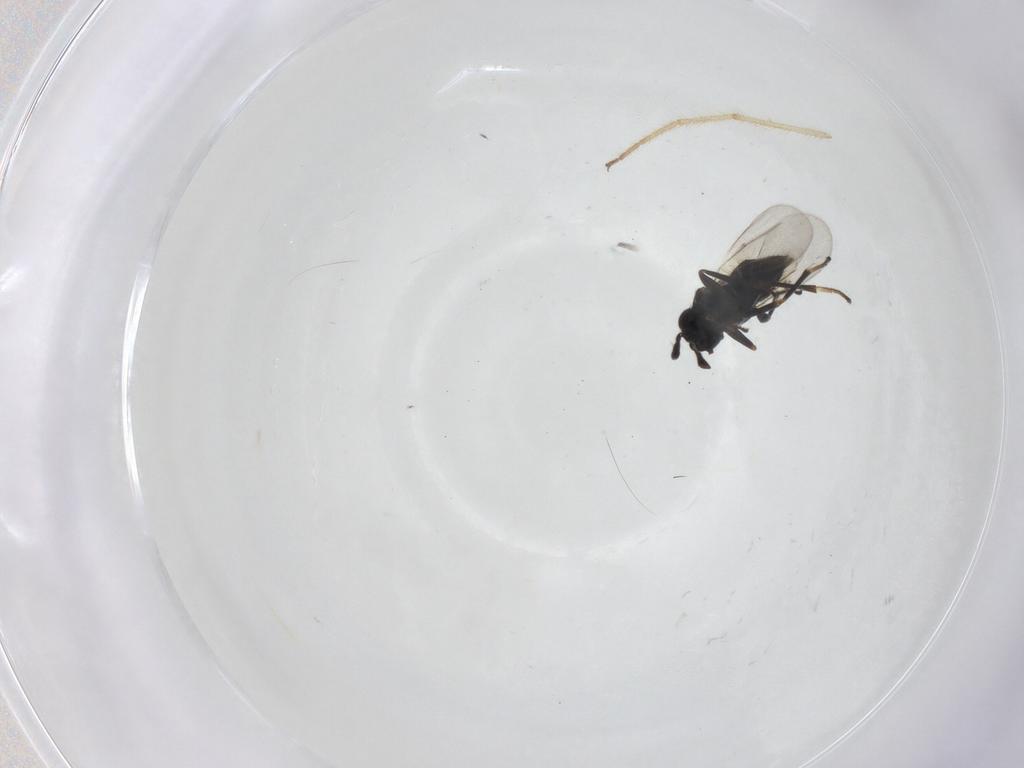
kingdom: Animalia
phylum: Arthropoda
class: Insecta
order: Hymenoptera
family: Encyrtidae
